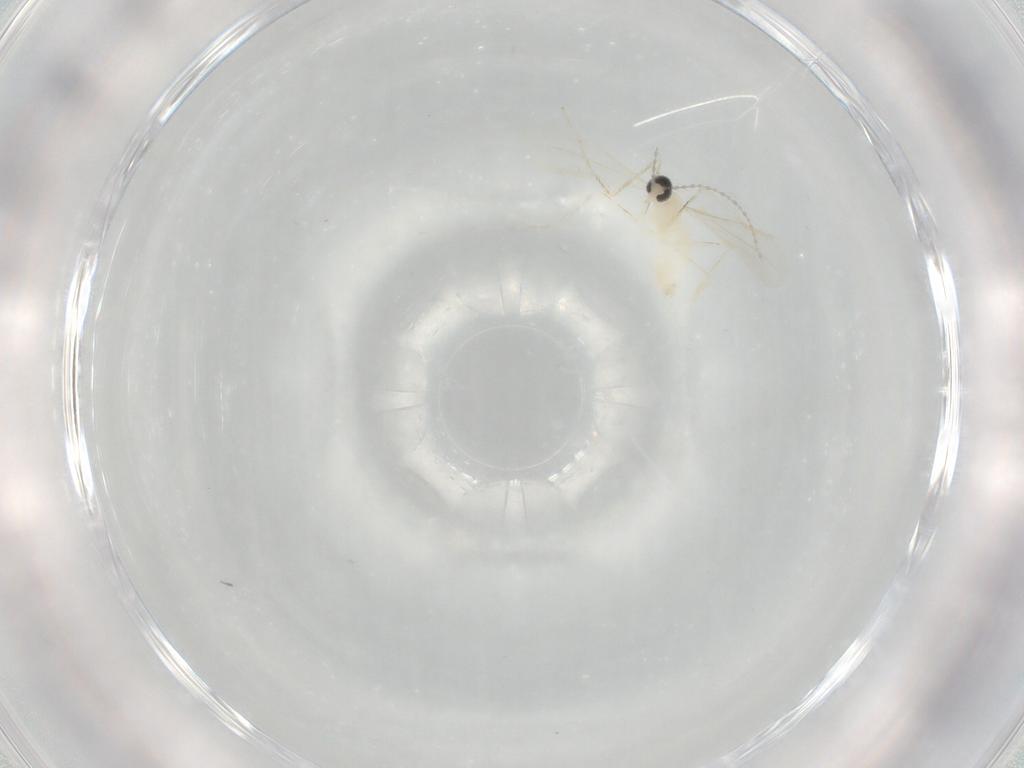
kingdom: Animalia
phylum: Arthropoda
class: Insecta
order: Diptera
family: Cecidomyiidae
